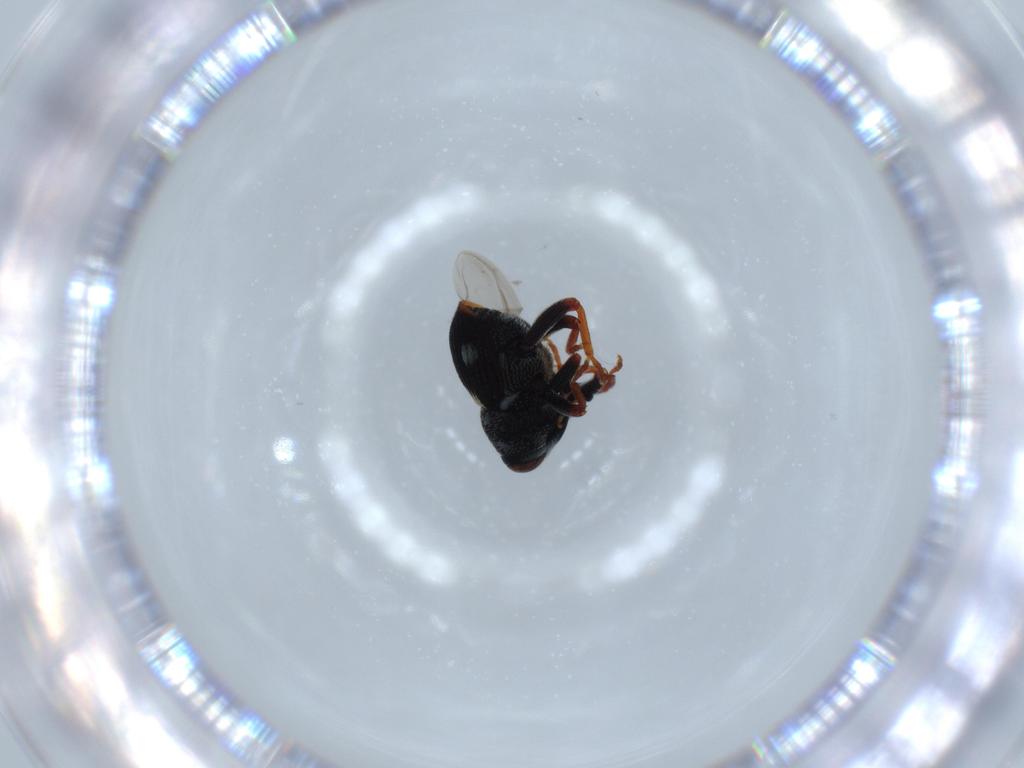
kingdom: Animalia
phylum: Arthropoda
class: Insecta
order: Coleoptera
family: Curculionidae
